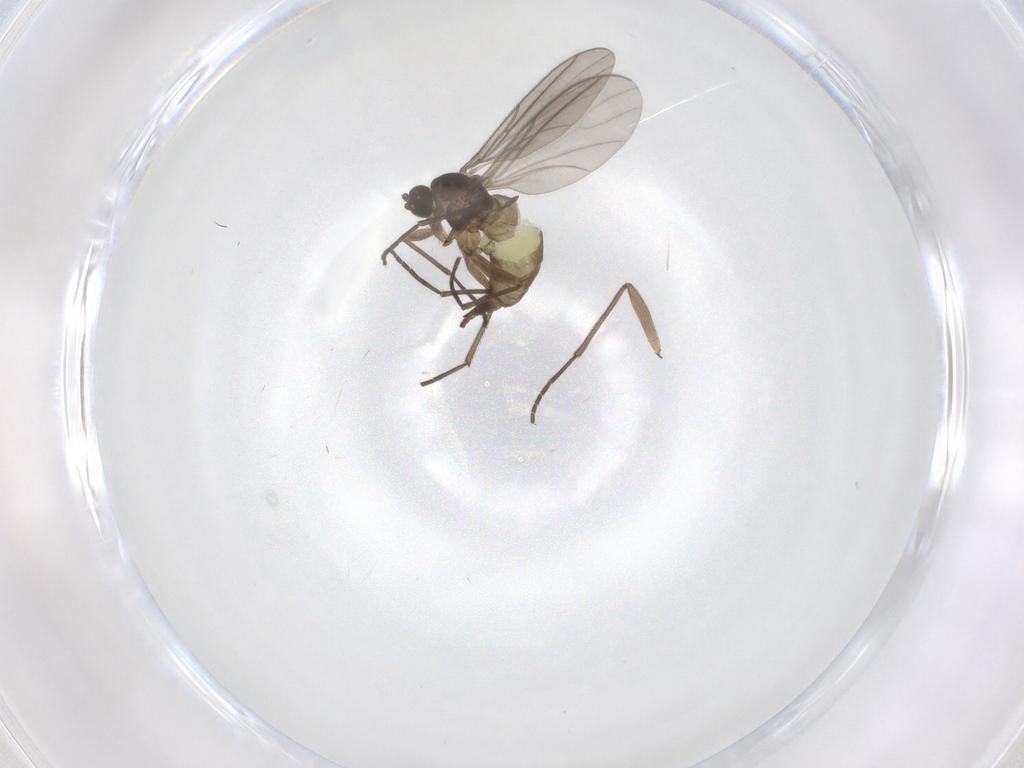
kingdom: Animalia
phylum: Arthropoda
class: Insecta
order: Diptera
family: Sciaridae
